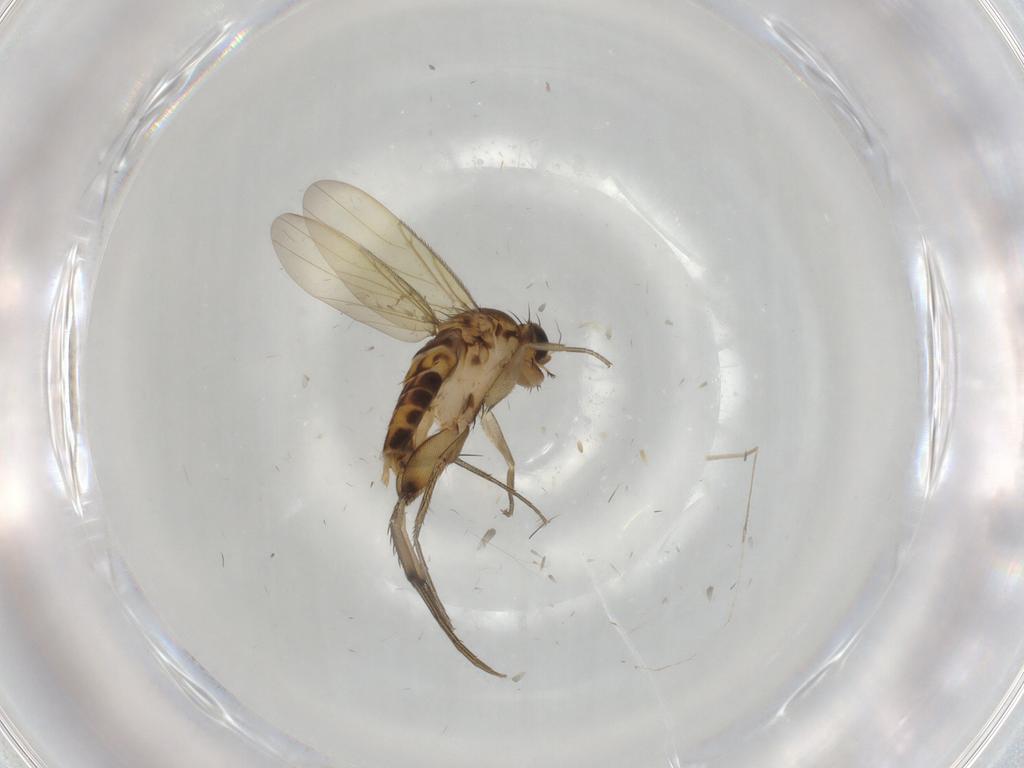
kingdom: Animalia
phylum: Arthropoda
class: Insecta
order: Diptera
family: Phoridae
